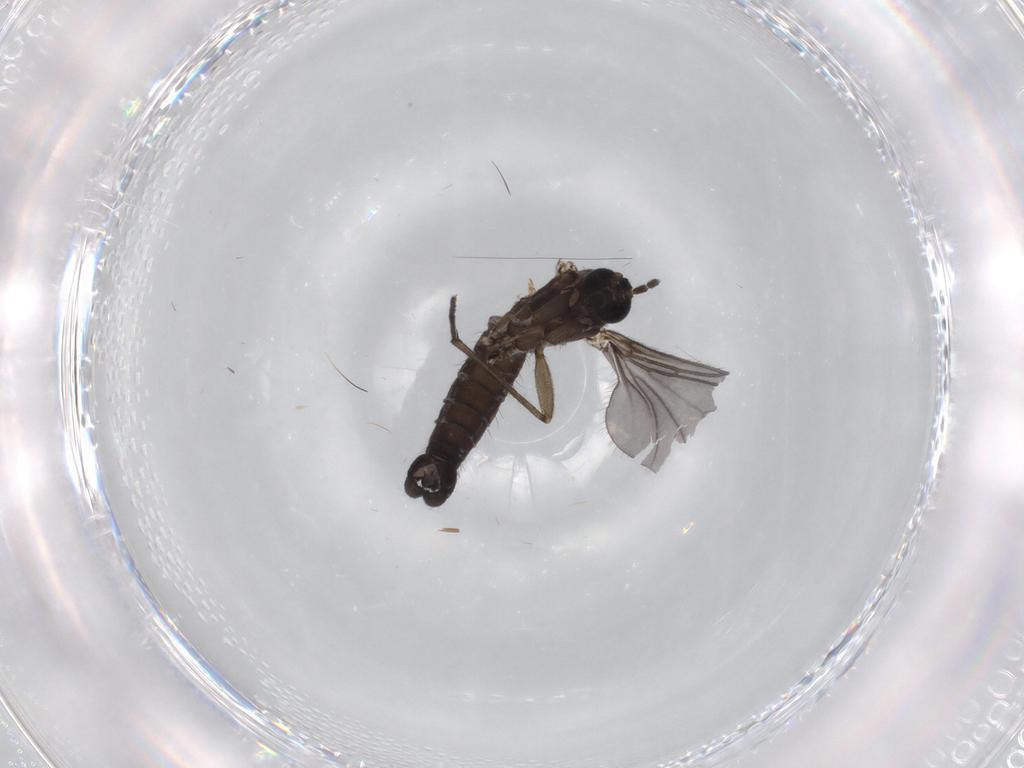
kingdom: Animalia
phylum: Arthropoda
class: Insecta
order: Diptera
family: Sciaridae
